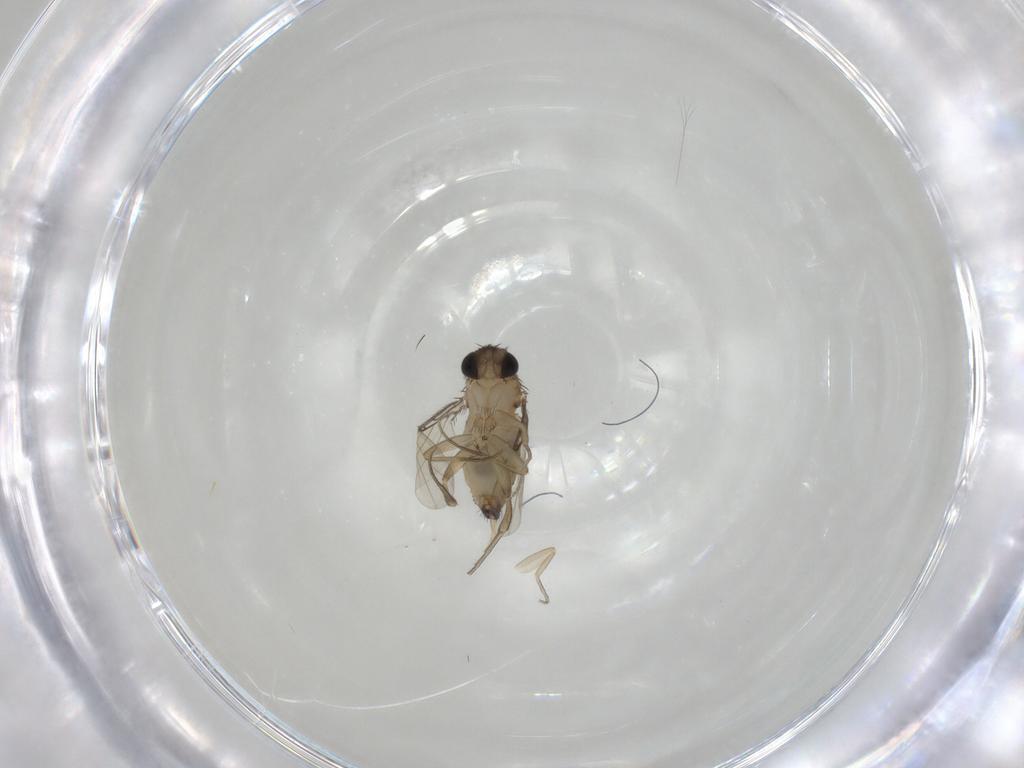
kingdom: Animalia
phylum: Arthropoda
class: Insecta
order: Diptera
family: Phoridae
